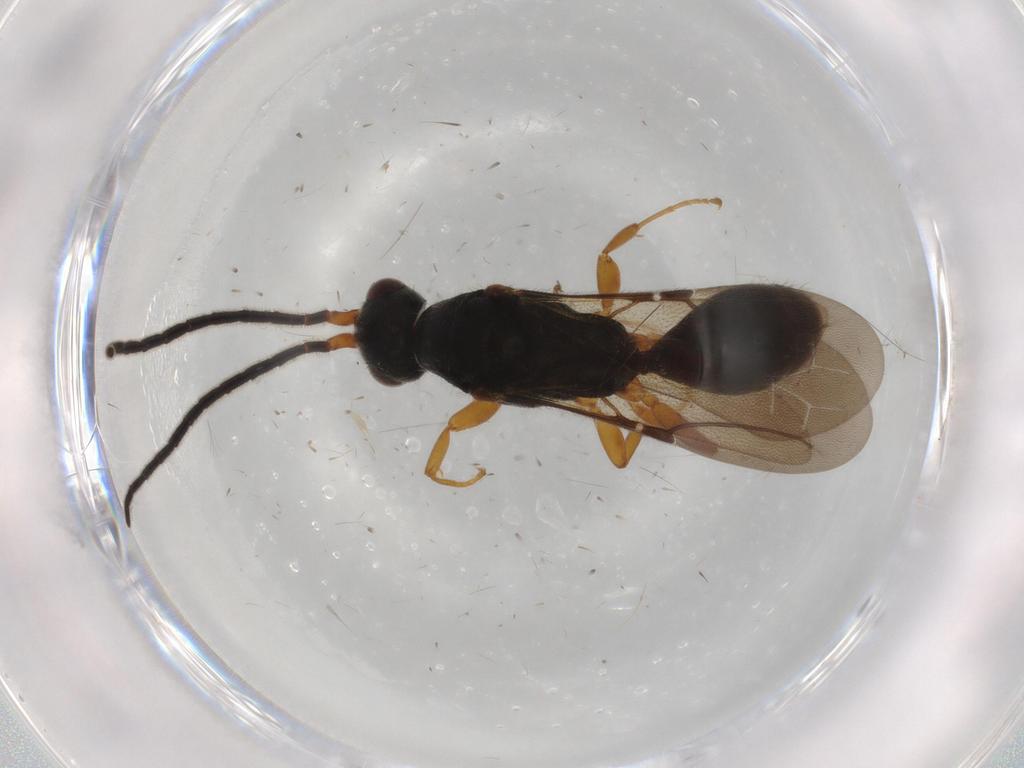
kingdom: Animalia
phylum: Arthropoda
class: Insecta
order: Hymenoptera
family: Bethylidae
